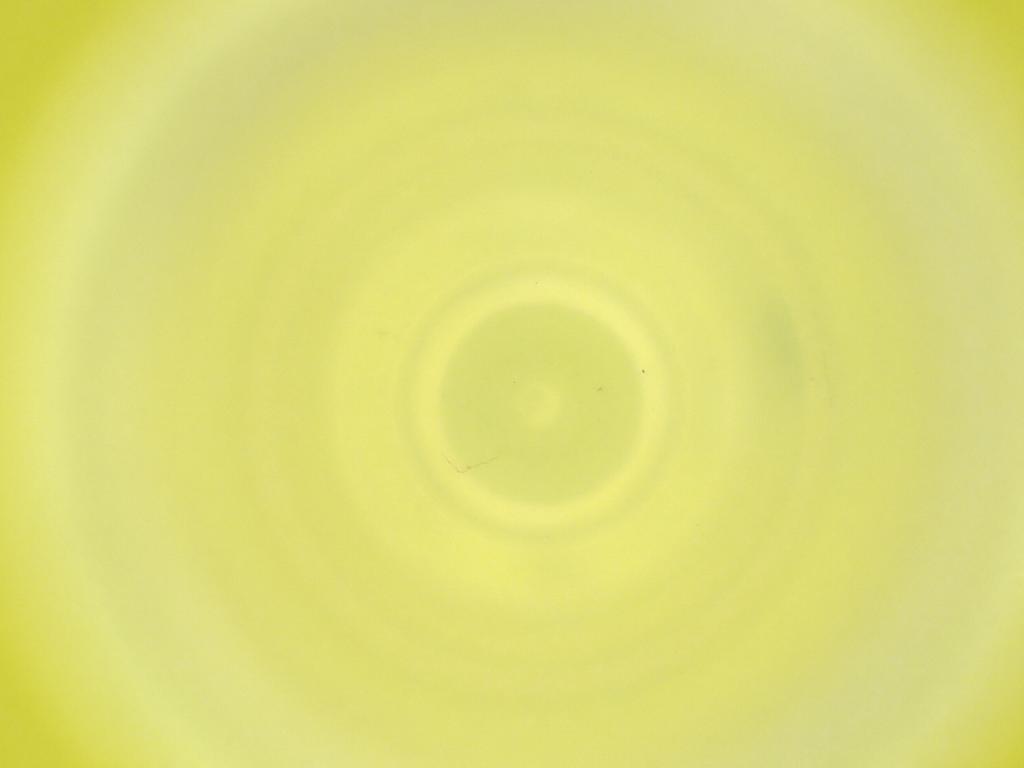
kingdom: Animalia
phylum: Arthropoda
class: Insecta
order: Diptera
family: Cecidomyiidae
